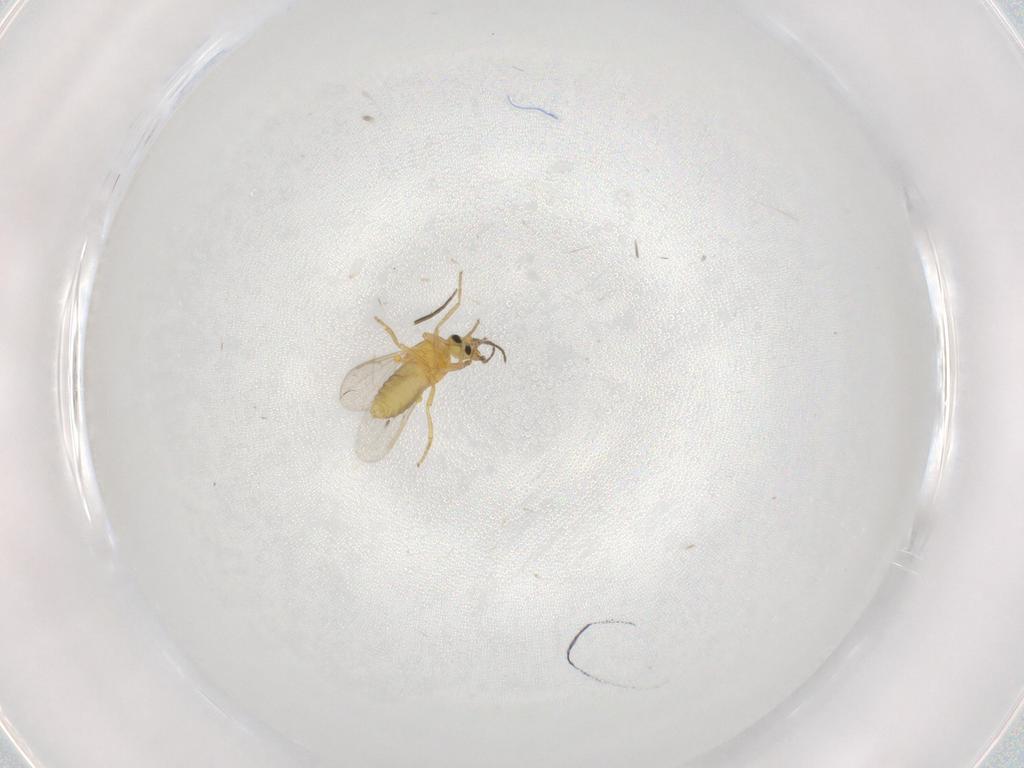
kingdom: Animalia
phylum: Arthropoda
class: Insecta
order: Diptera
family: Ceratopogonidae
